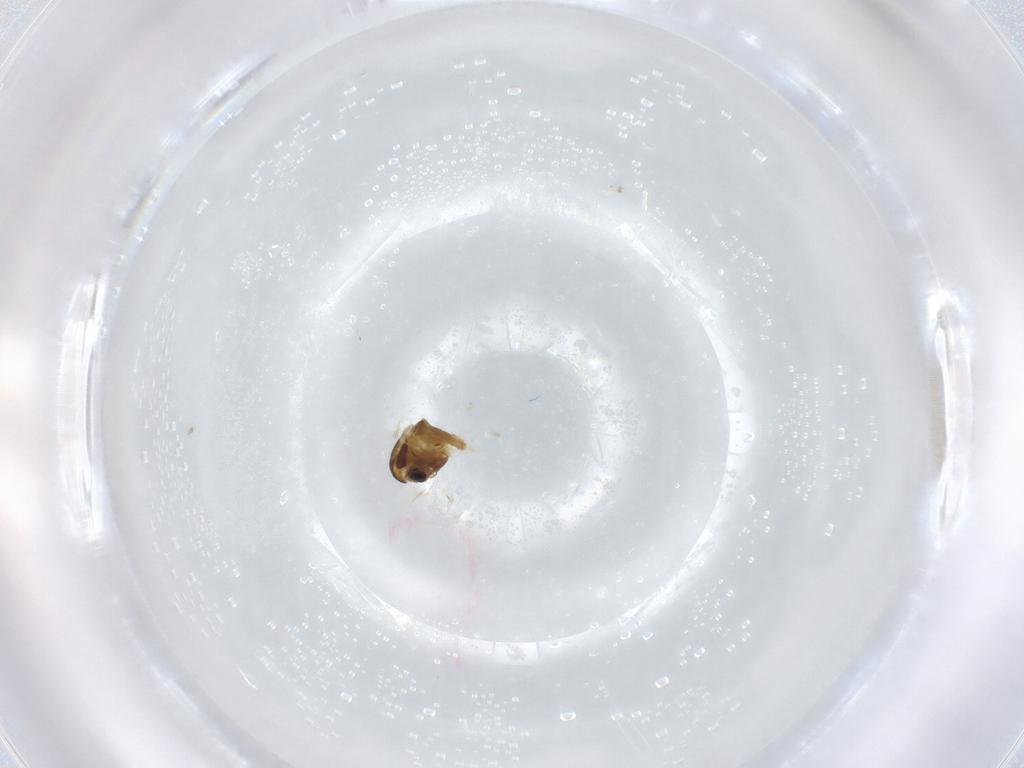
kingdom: Animalia
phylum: Arthropoda
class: Insecta
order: Diptera
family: Chironomidae
